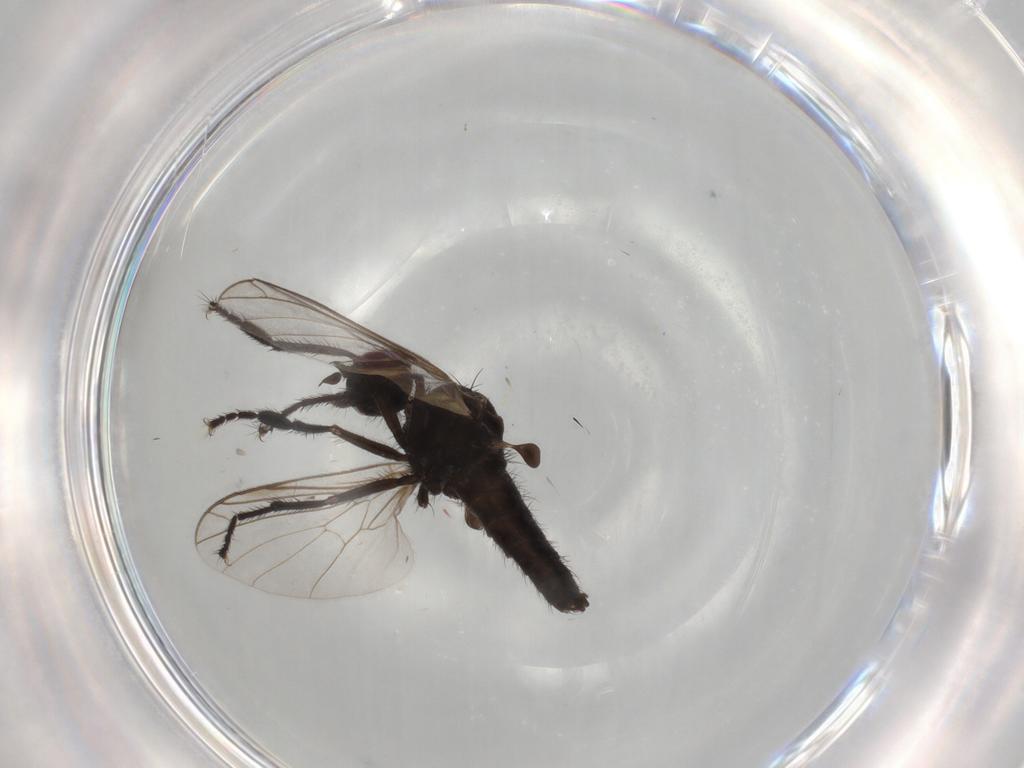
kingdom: Animalia
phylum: Arthropoda
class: Insecta
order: Diptera
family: Empididae
